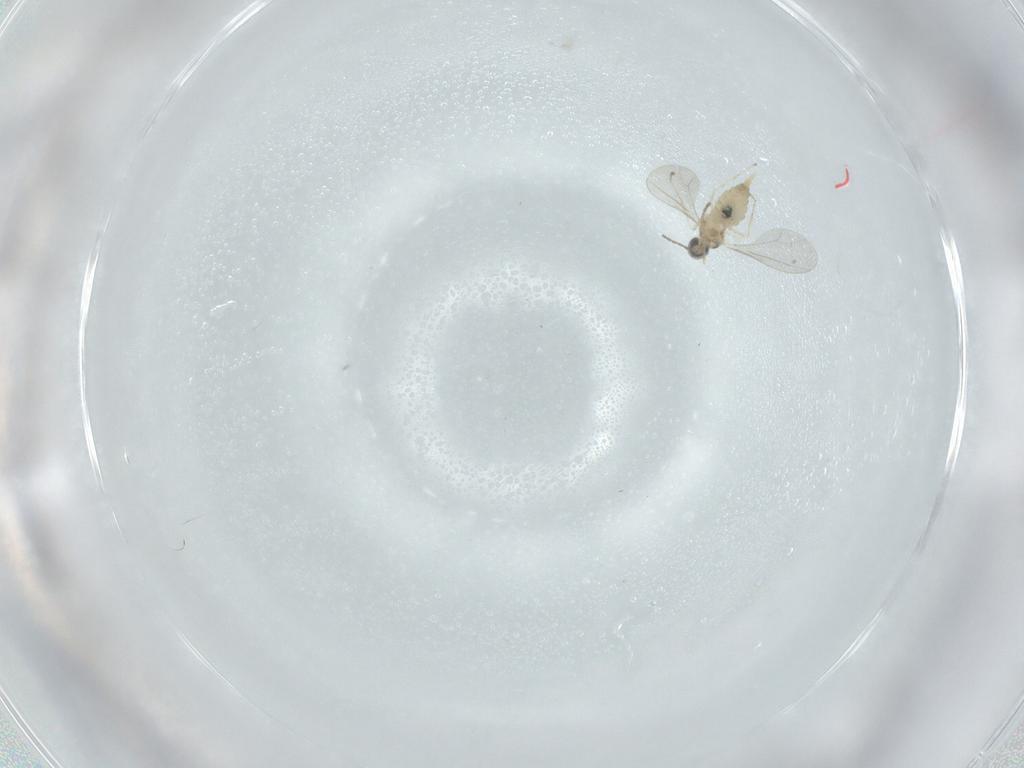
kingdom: Animalia
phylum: Arthropoda
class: Insecta
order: Diptera
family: Cecidomyiidae
